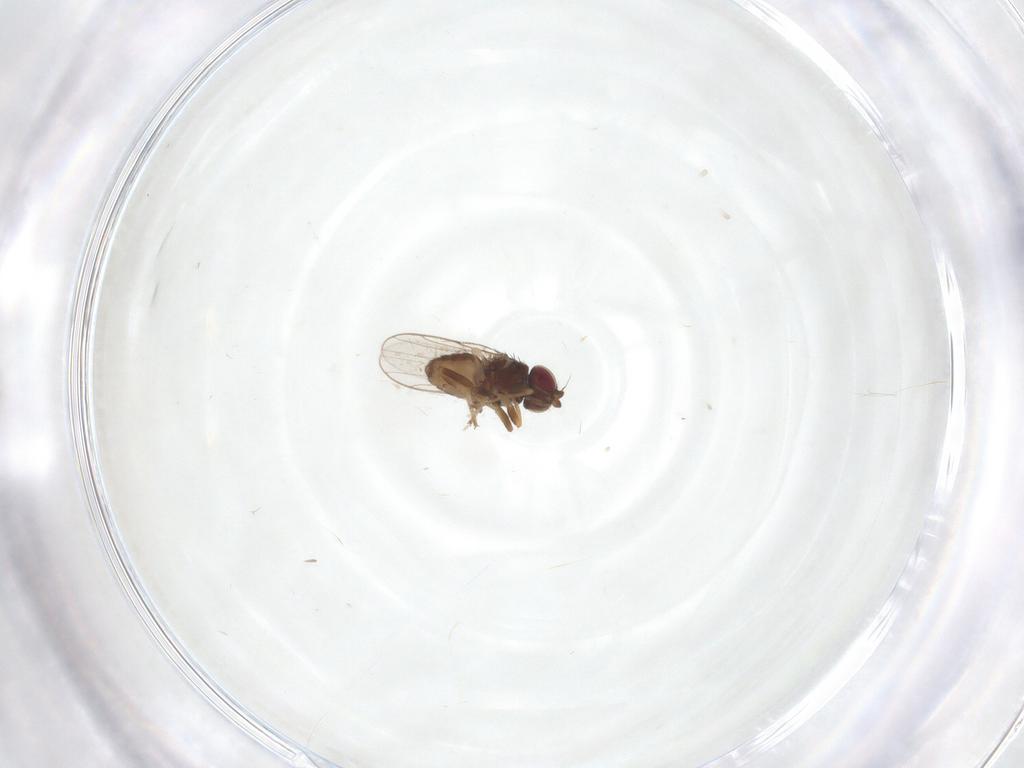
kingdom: Animalia
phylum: Arthropoda
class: Insecta
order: Diptera
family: Chloropidae
